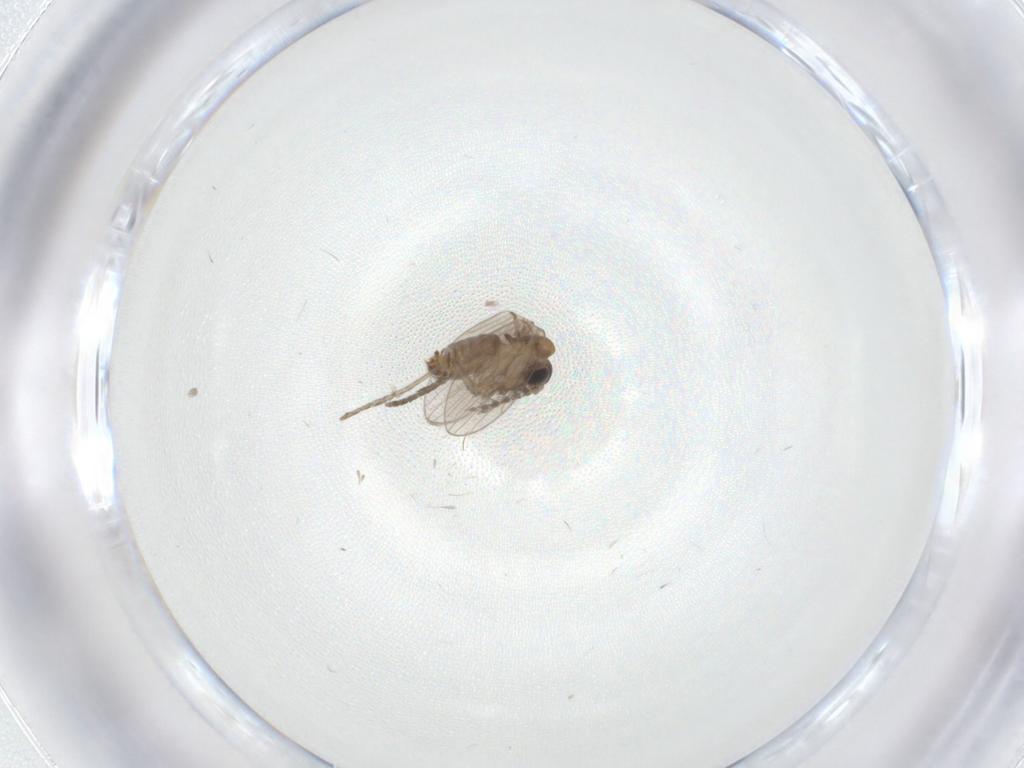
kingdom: Animalia
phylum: Arthropoda
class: Insecta
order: Diptera
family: Psychodidae
